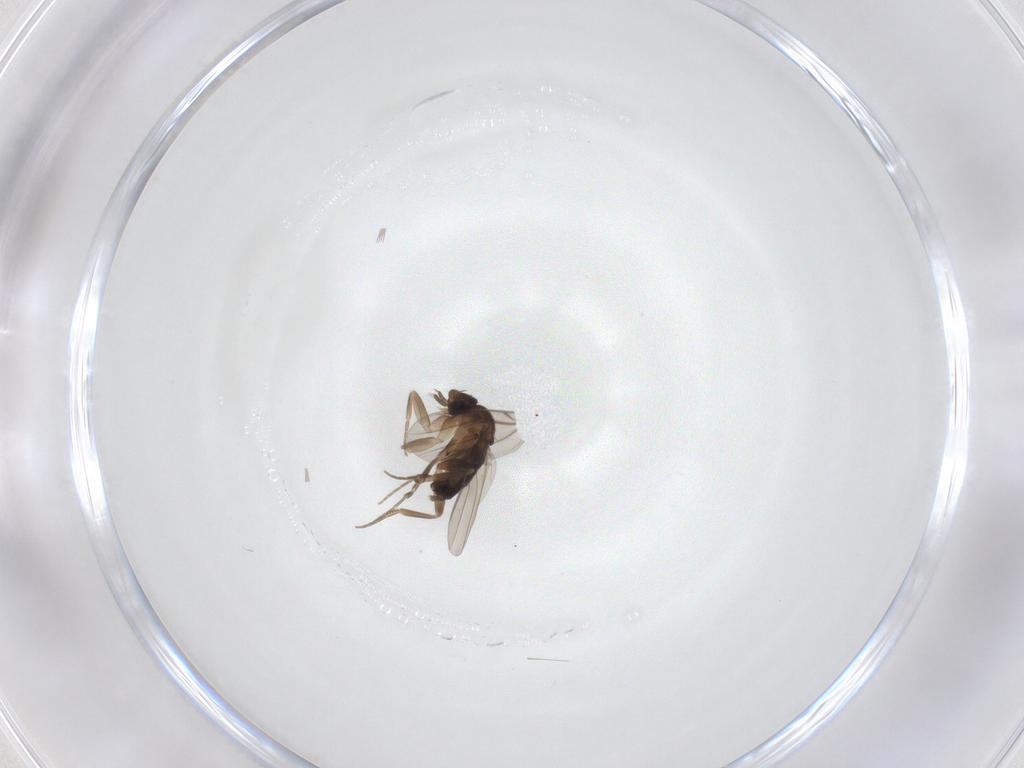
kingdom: Animalia
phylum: Arthropoda
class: Insecta
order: Diptera
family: Phoridae
